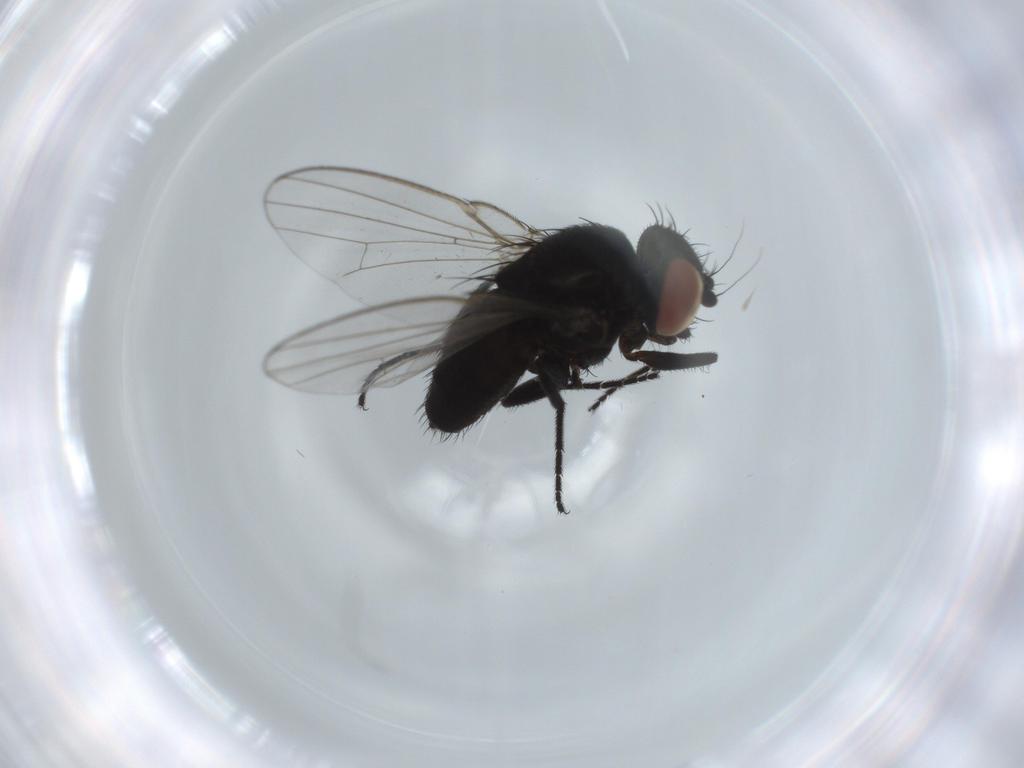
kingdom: Animalia
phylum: Arthropoda
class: Insecta
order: Diptera
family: Milichiidae
